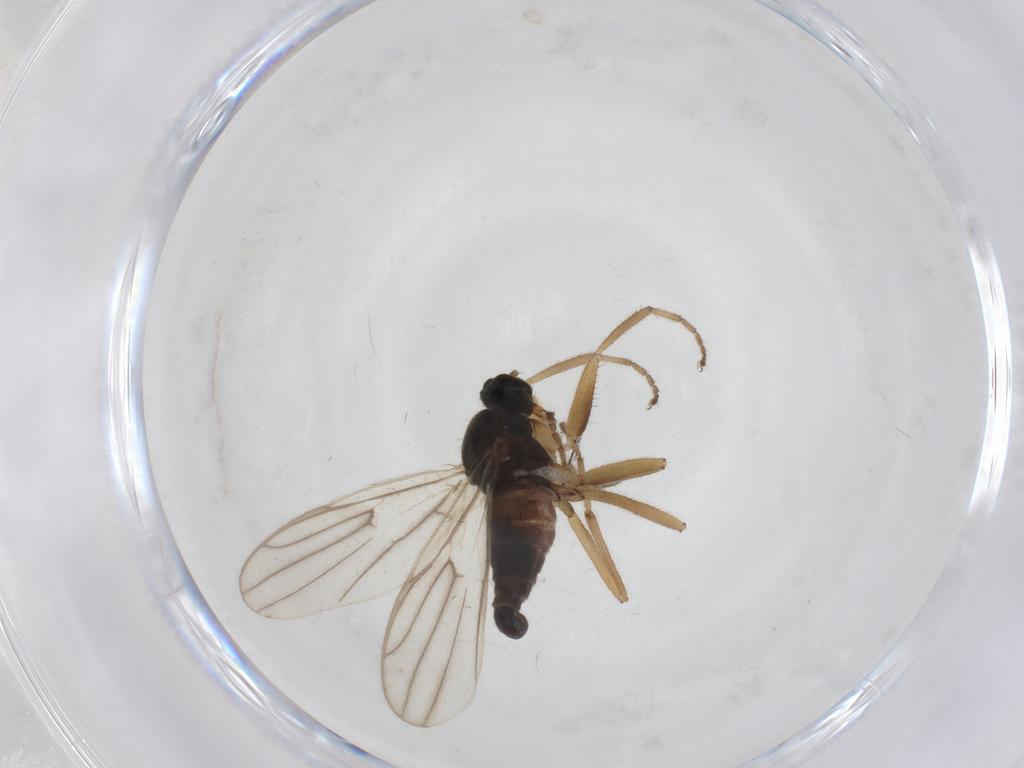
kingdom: Animalia
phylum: Arthropoda
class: Insecta
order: Diptera
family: Hybotidae
